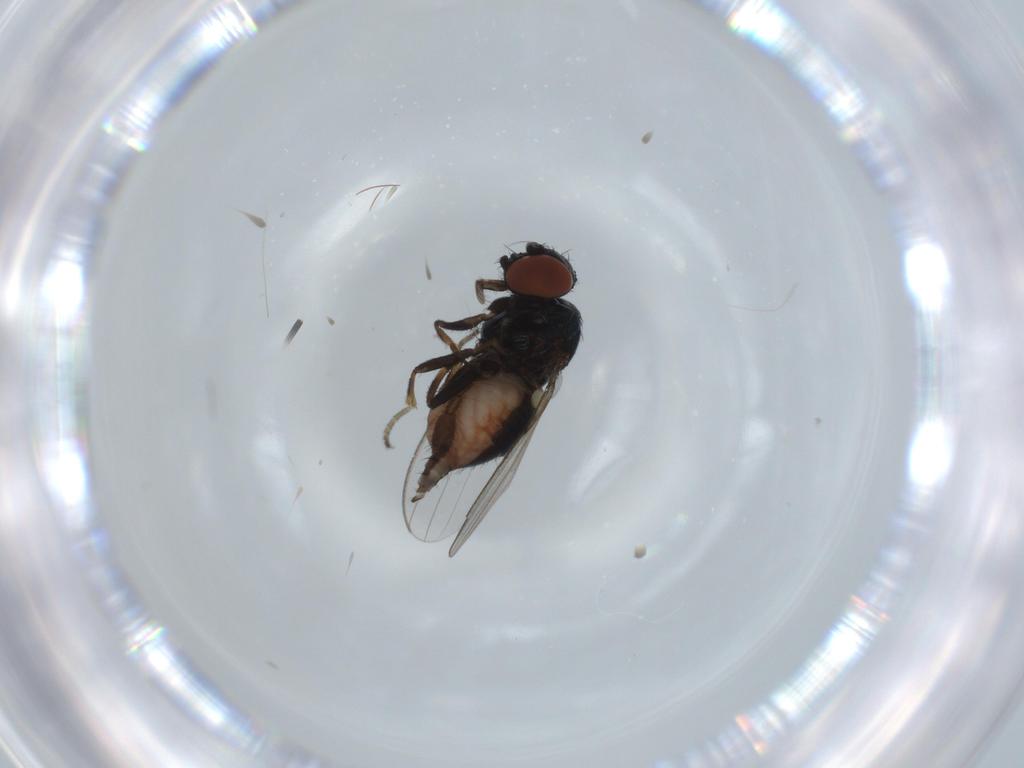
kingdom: Animalia
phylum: Arthropoda
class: Insecta
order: Diptera
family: Milichiidae
